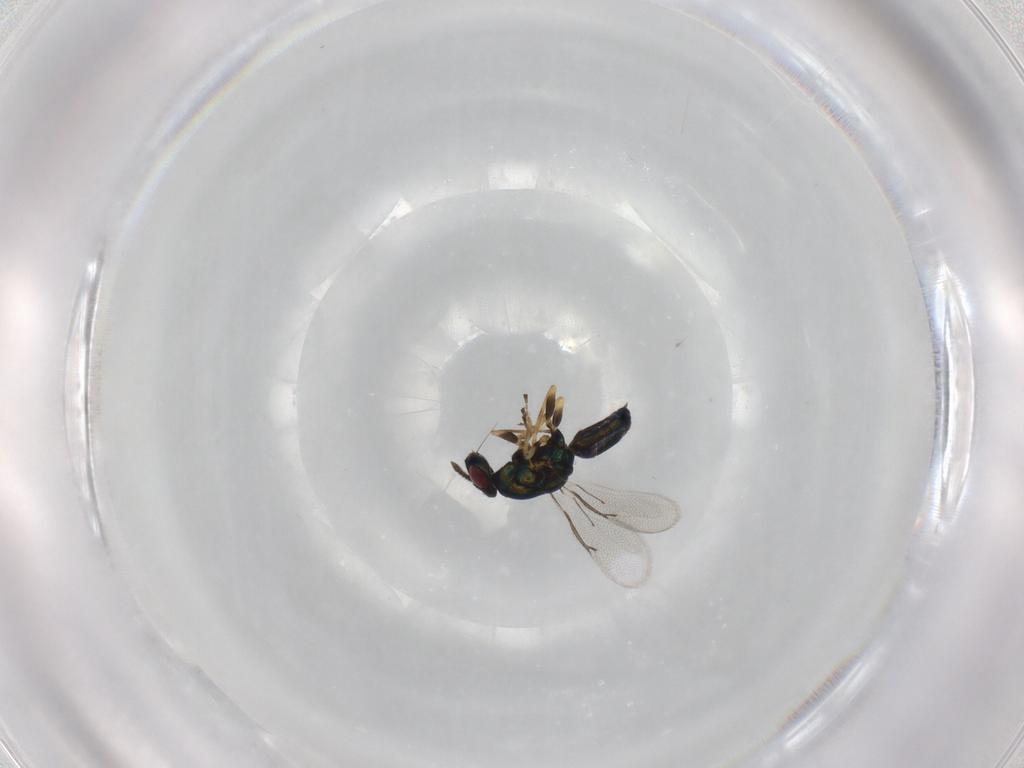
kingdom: Animalia
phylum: Arthropoda
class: Insecta
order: Hymenoptera
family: Eulophidae
